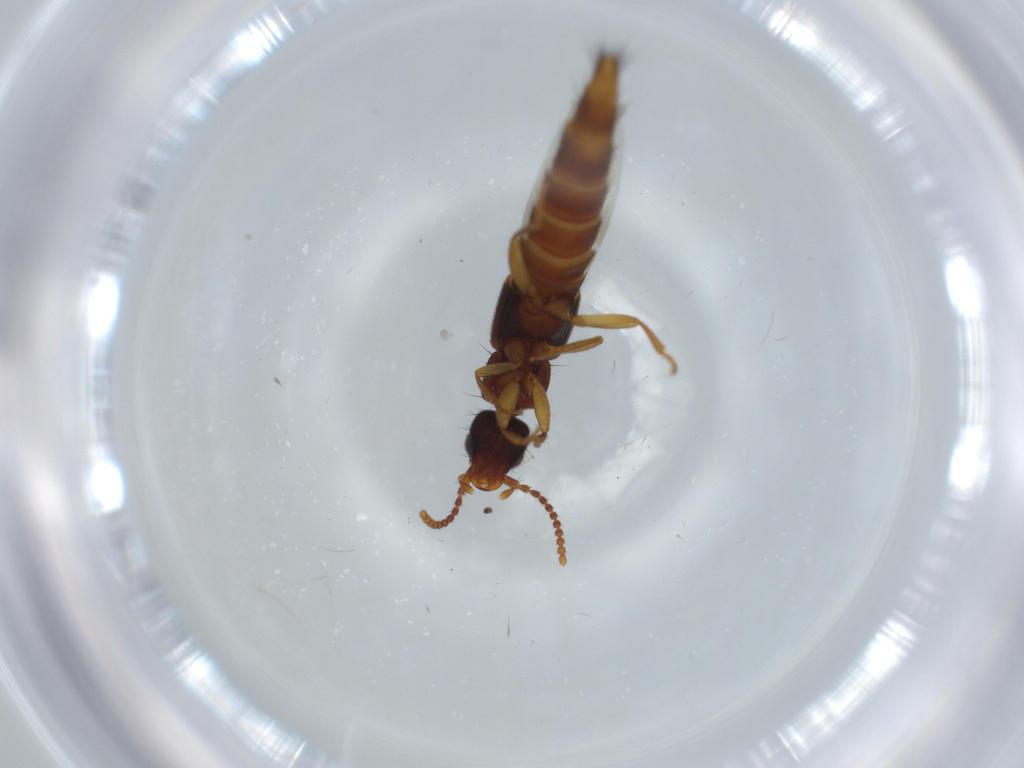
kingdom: Animalia
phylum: Arthropoda
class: Insecta
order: Coleoptera
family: Staphylinidae
